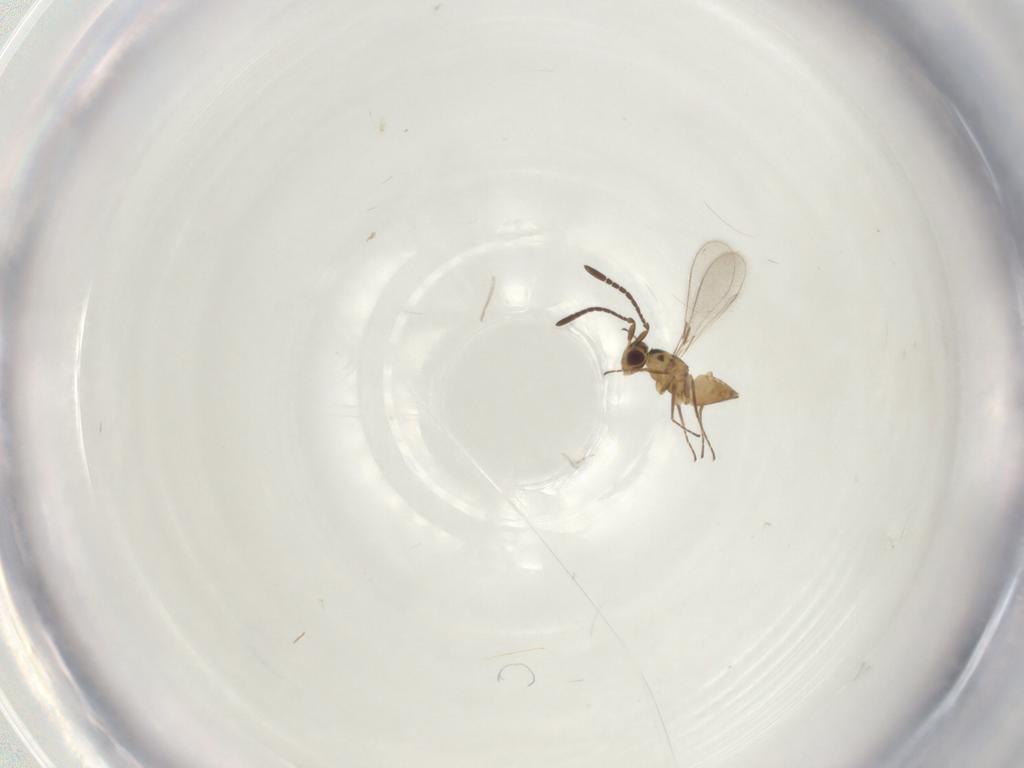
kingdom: Animalia
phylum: Arthropoda
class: Insecta
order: Hymenoptera
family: Mymaridae
